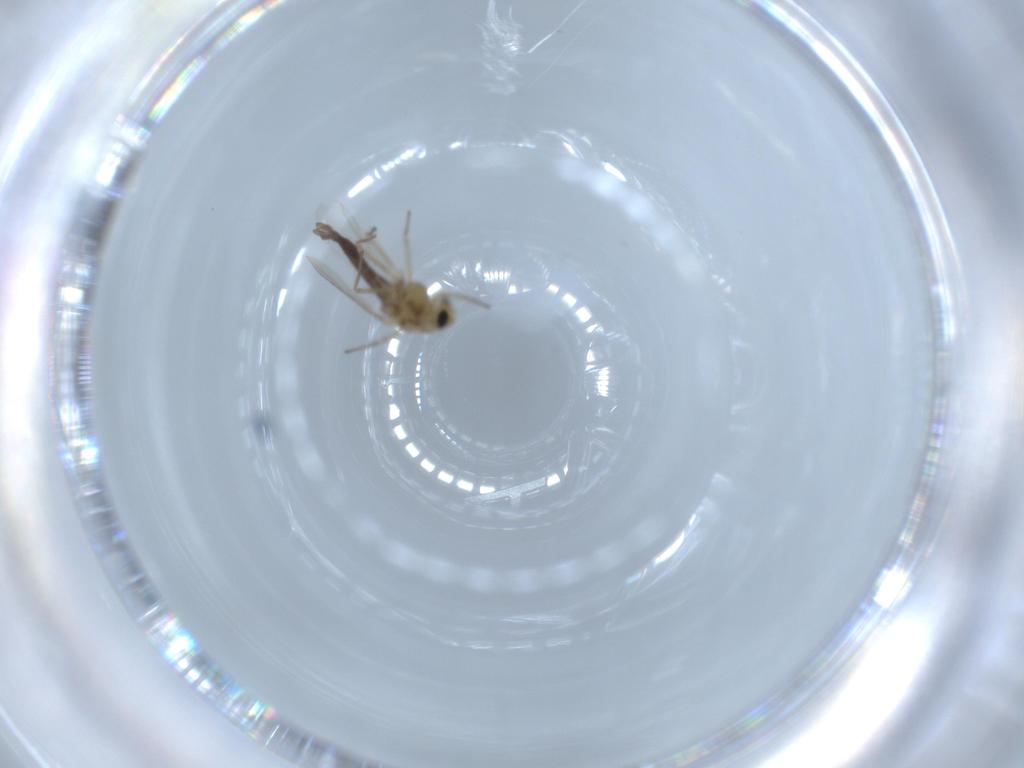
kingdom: Animalia
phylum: Arthropoda
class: Insecta
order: Diptera
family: Chironomidae
